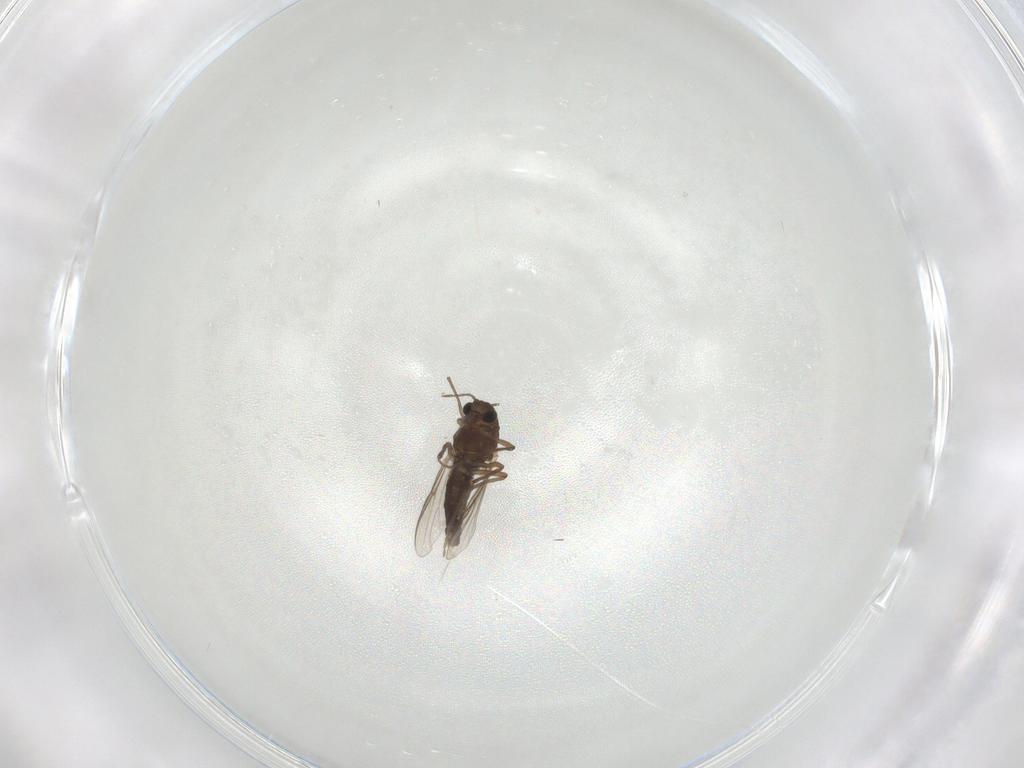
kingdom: Animalia
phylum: Arthropoda
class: Insecta
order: Diptera
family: Chironomidae
